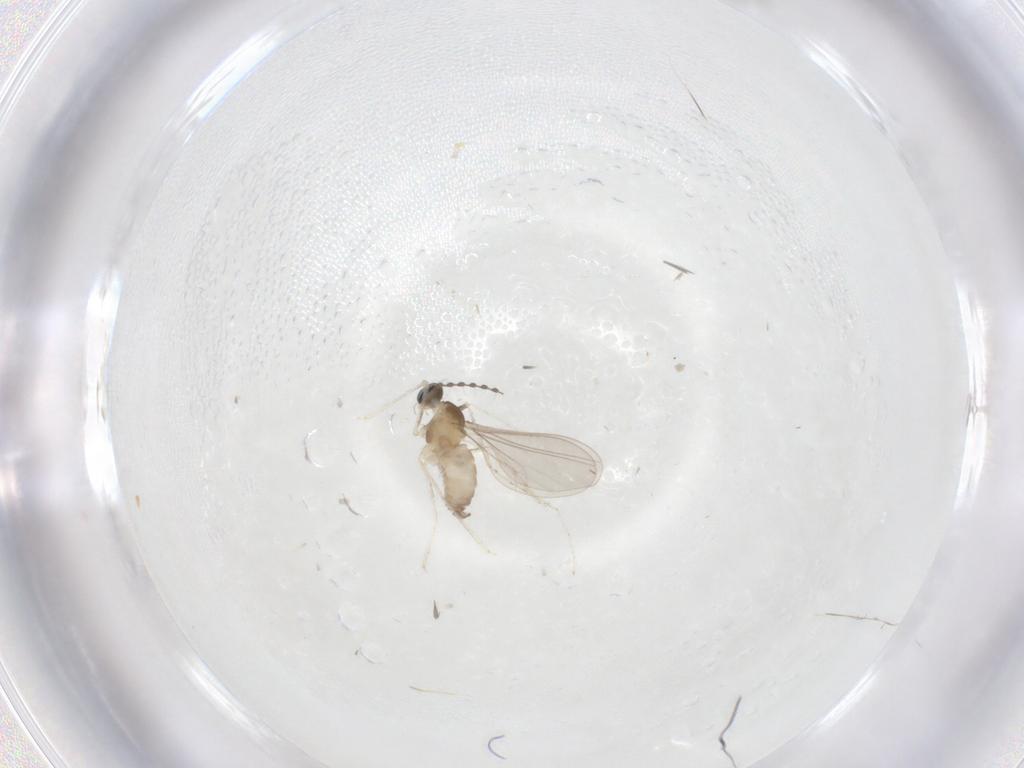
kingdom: Animalia
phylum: Arthropoda
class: Insecta
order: Diptera
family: Cecidomyiidae
